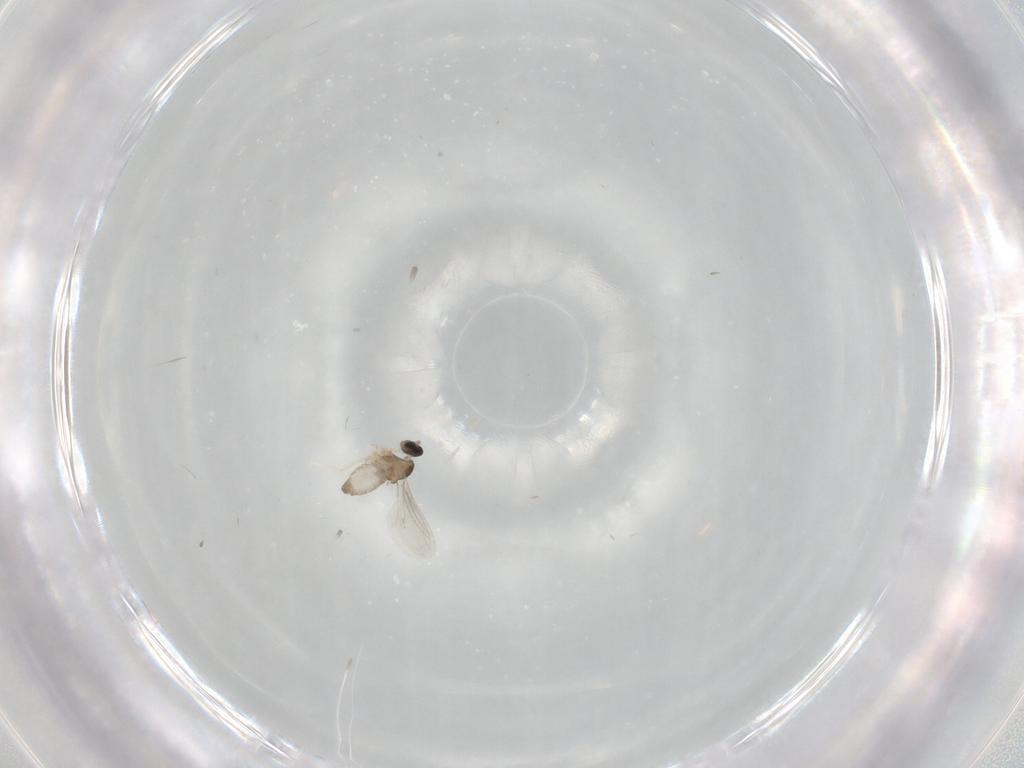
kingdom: Animalia
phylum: Arthropoda
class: Insecta
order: Diptera
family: Cecidomyiidae
